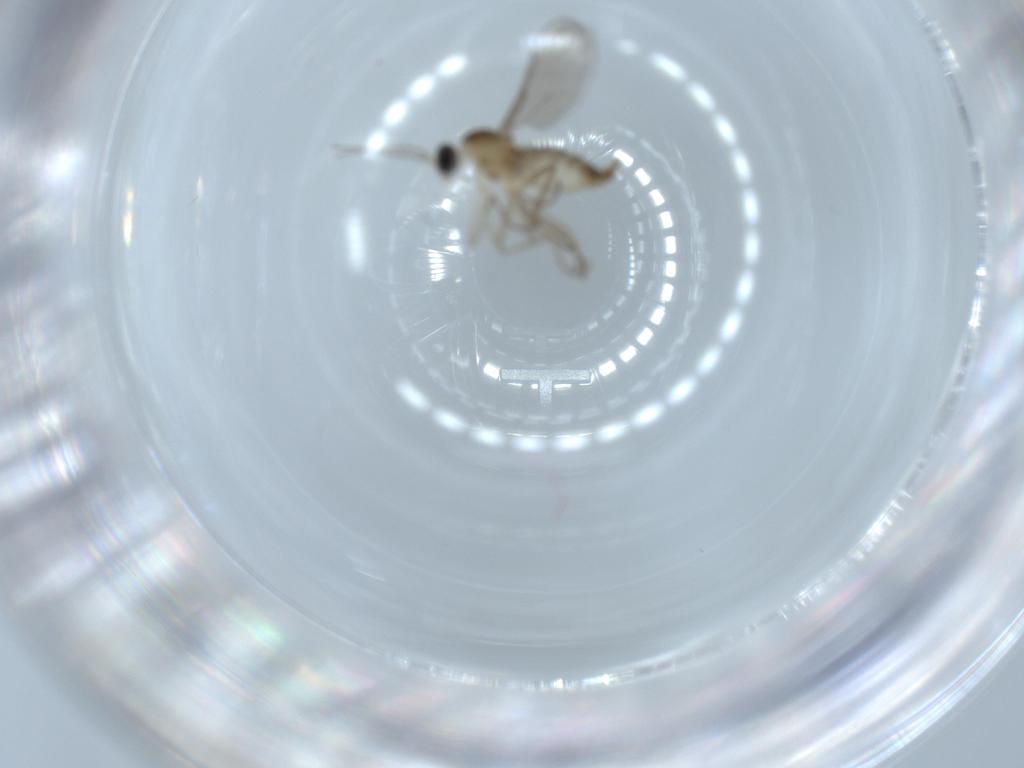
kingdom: Animalia
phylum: Arthropoda
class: Insecta
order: Diptera
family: Cecidomyiidae
